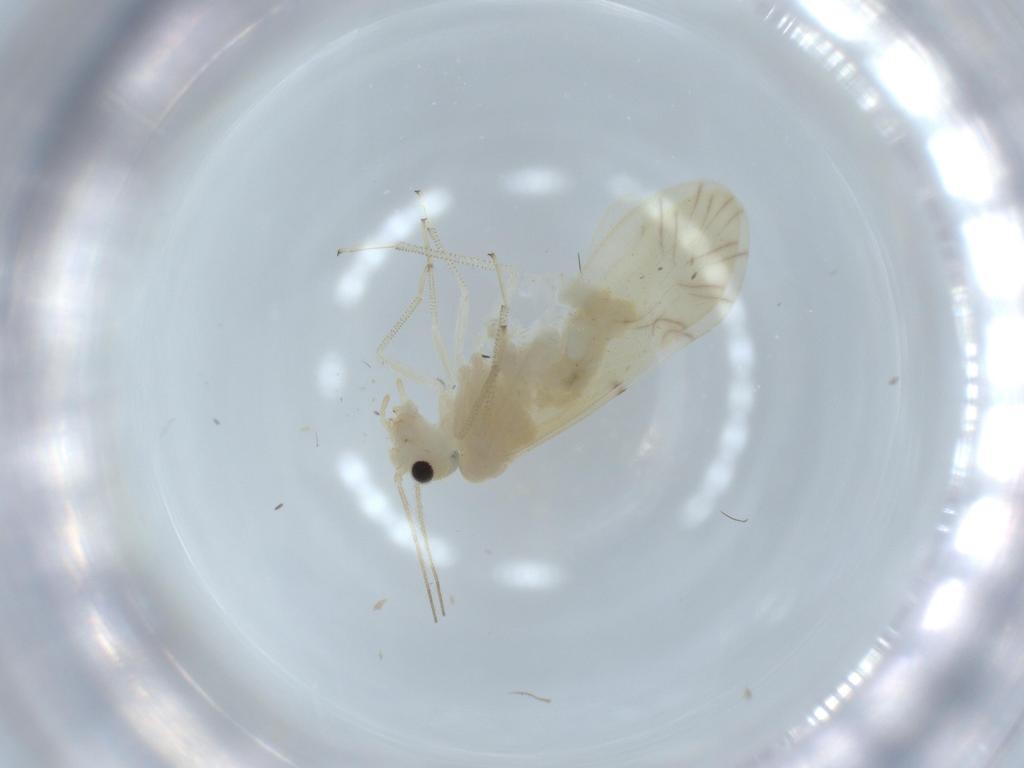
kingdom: Animalia
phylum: Arthropoda
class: Insecta
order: Psocodea
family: Caeciliusidae
